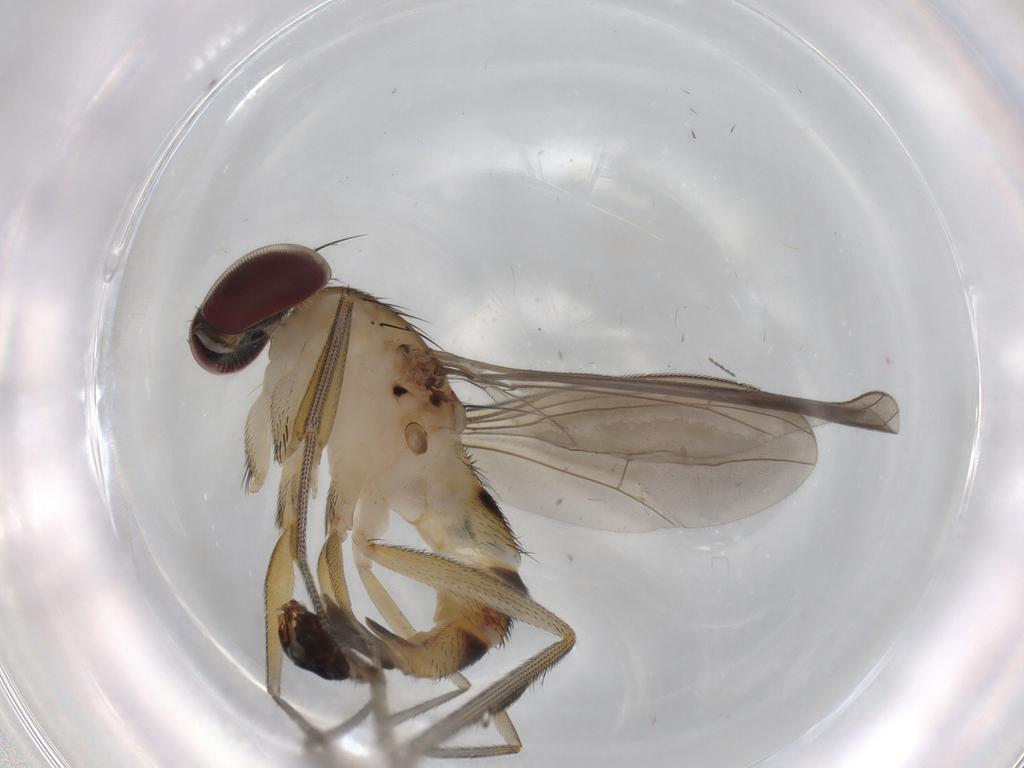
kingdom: Animalia
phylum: Arthropoda
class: Insecta
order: Diptera
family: Dolichopodidae
